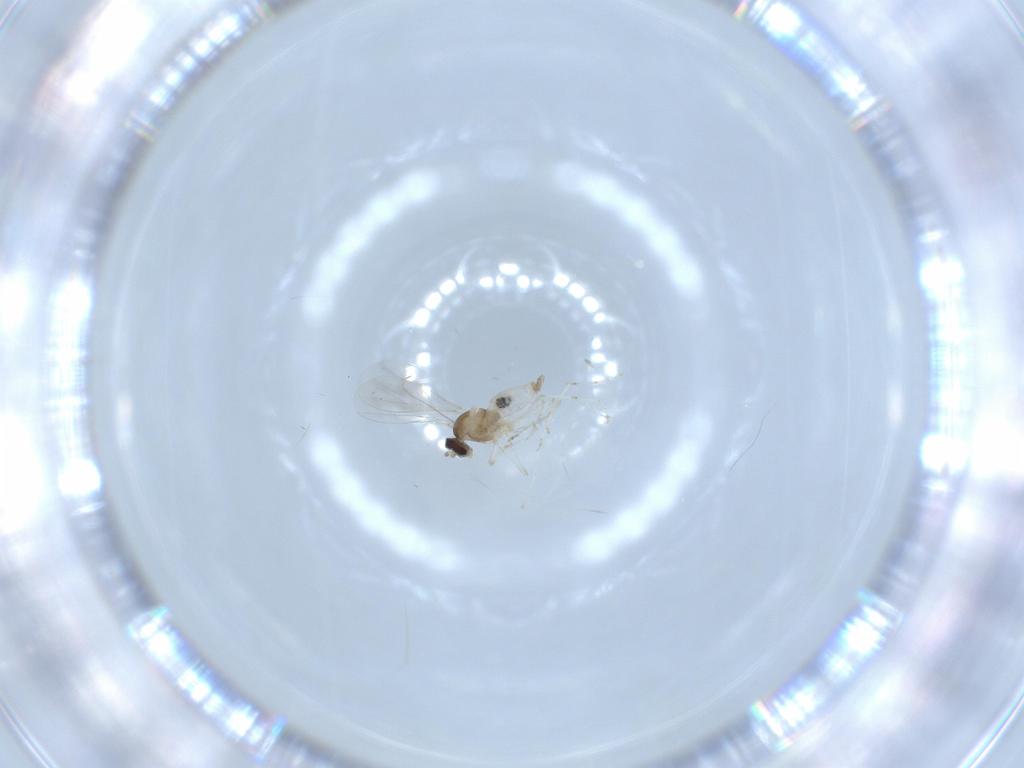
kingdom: Animalia
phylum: Arthropoda
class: Insecta
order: Diptera
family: Cecidomyiidae
